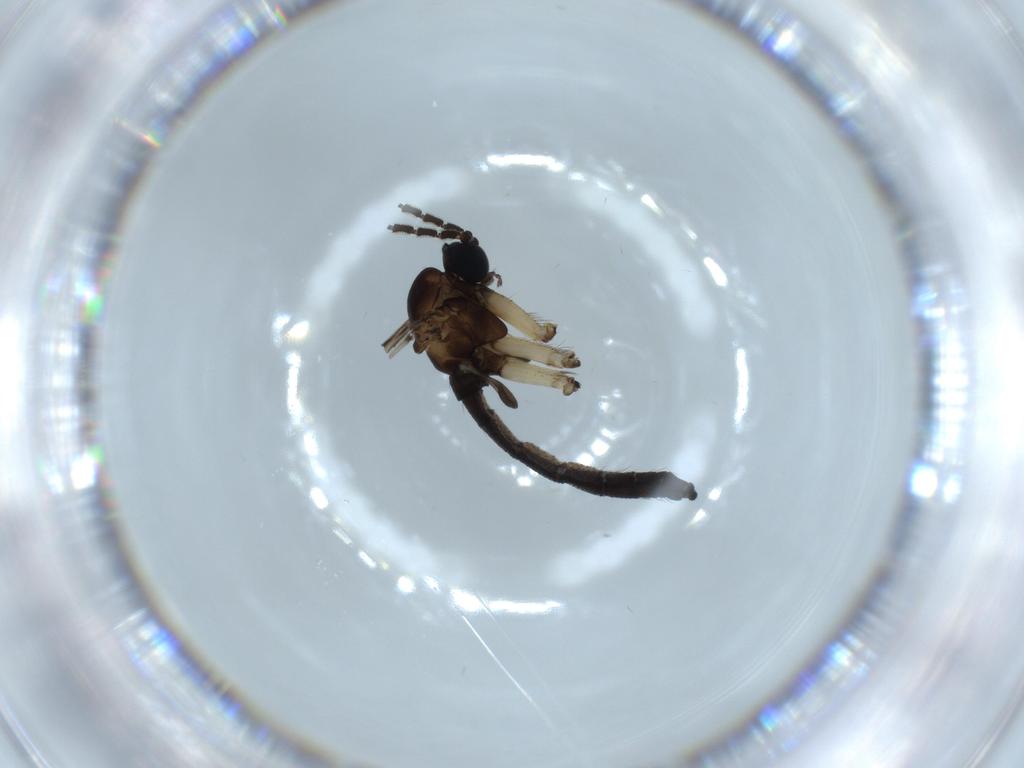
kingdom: Animalia
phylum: Arthropoda
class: Insecta
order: Diptera
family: Sciaridae
